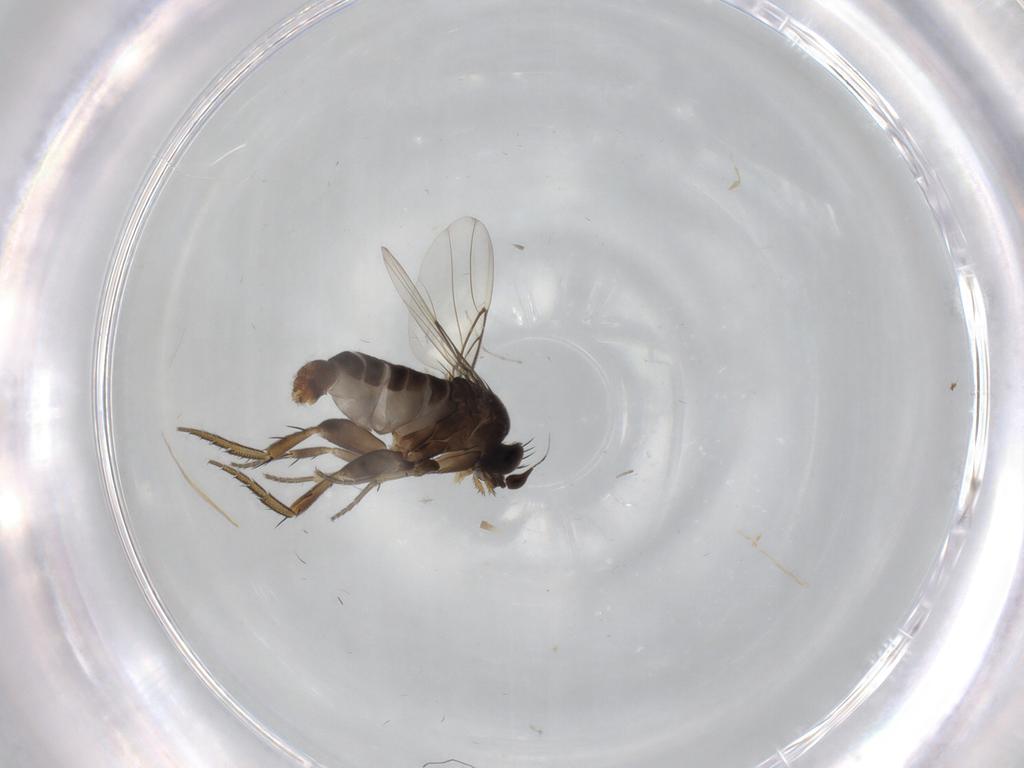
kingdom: Animalia
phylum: Arthropoda
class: Insecta
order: Diptera
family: Phoridae
